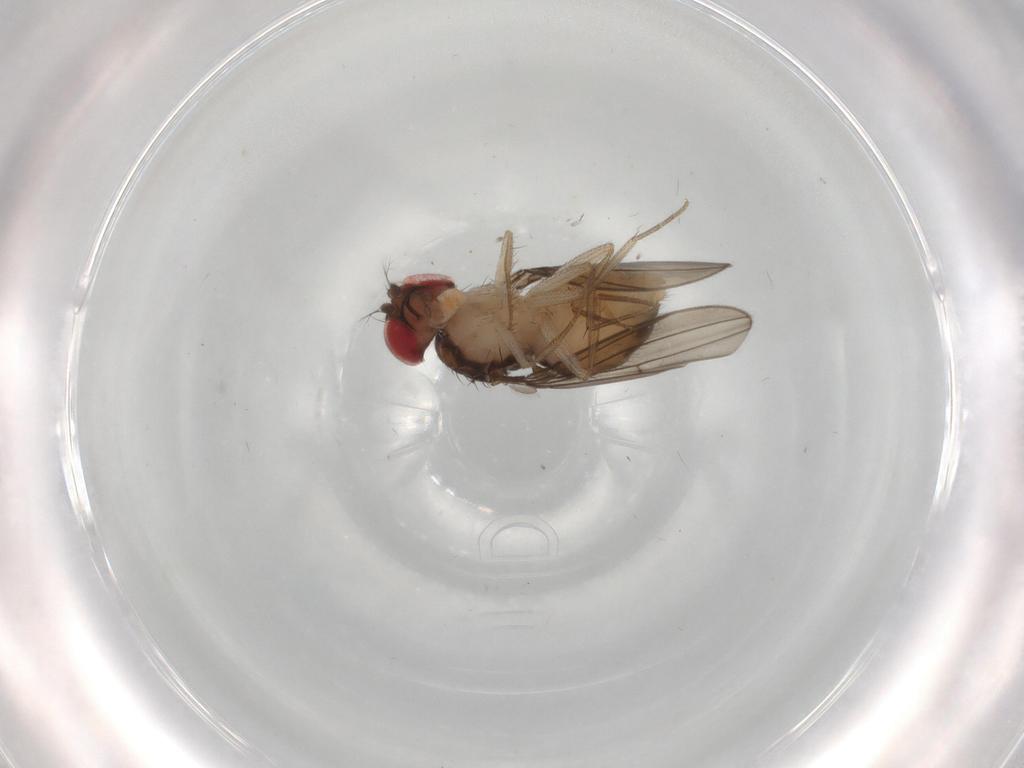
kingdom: Animalia
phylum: Arthropoda
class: Insecta
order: Diptera
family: Drosophilidae
